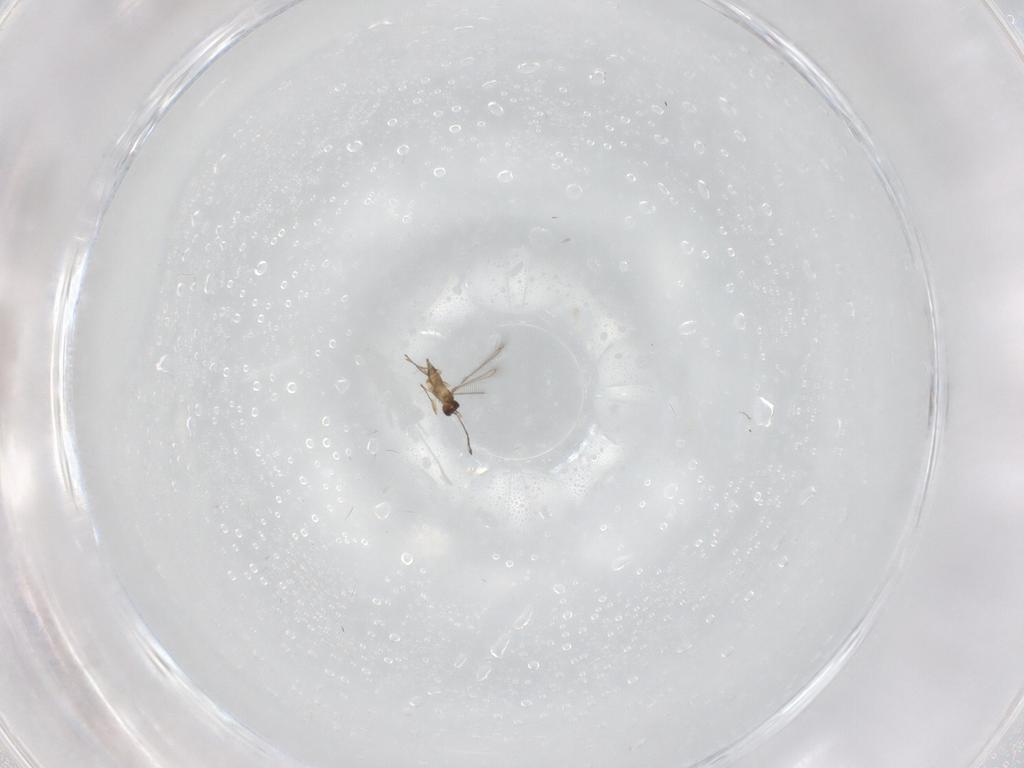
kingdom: Animalia
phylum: Arthropoda
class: Insecta
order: Hymenoptera
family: Mymaridae
